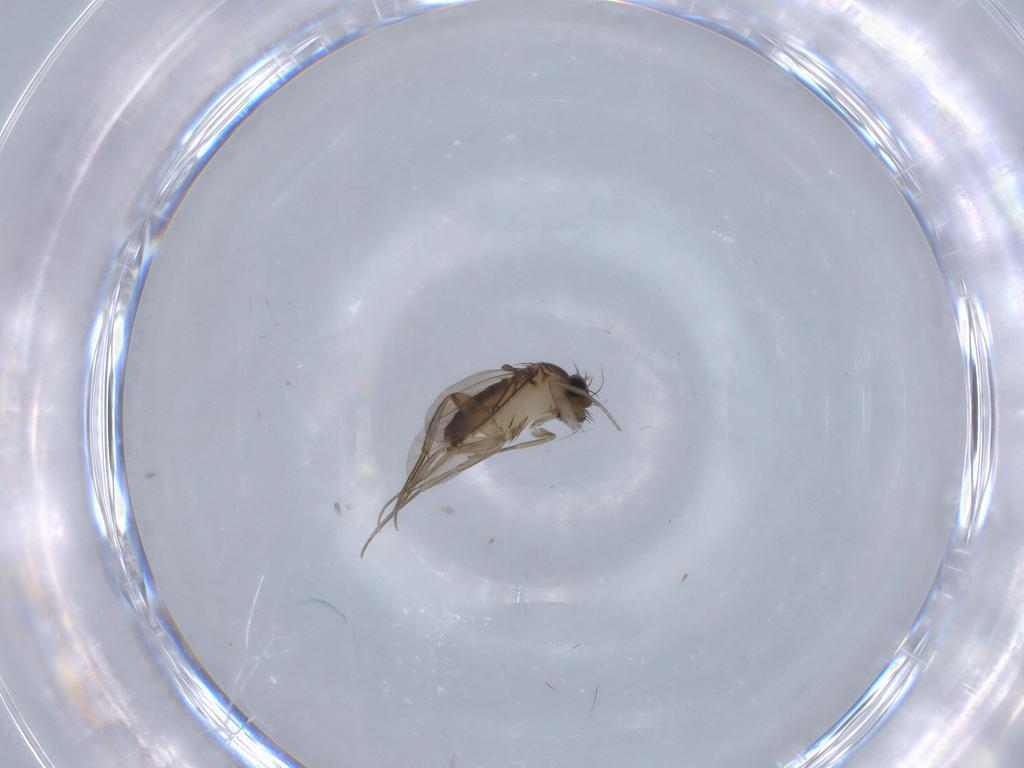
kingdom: Animalia
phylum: Arthropoda
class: Insecta
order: Diptera
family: Phoridae
